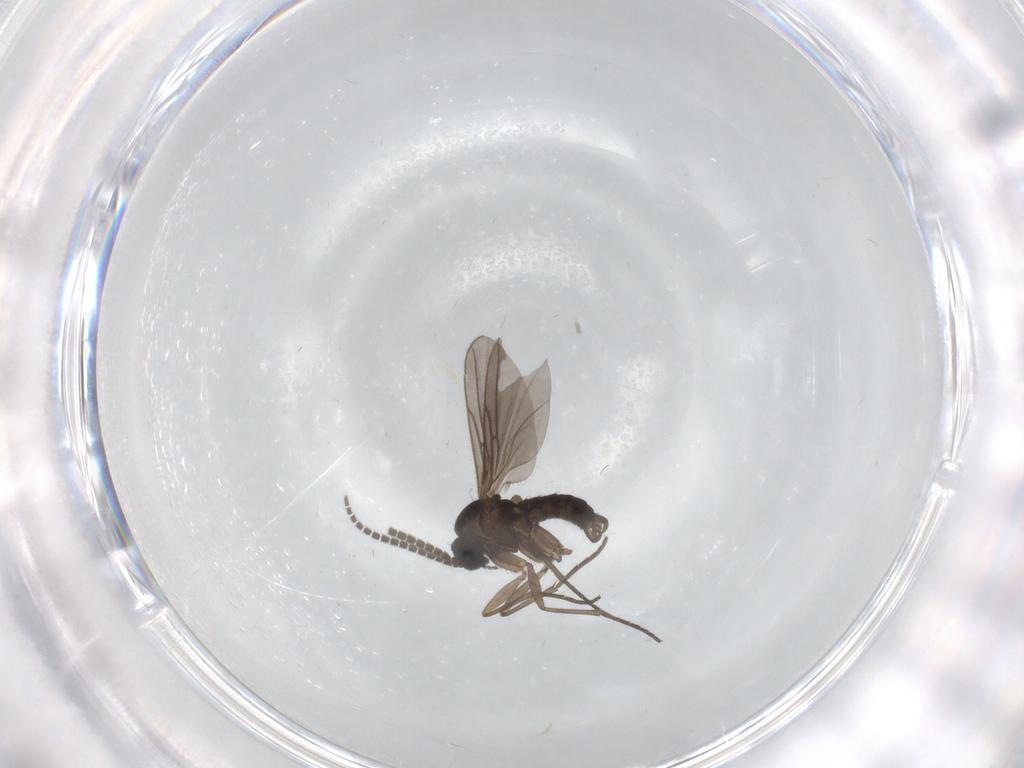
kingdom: Animalia
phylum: Arthropoda
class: Insecta
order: Diptera
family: Sciaridae
